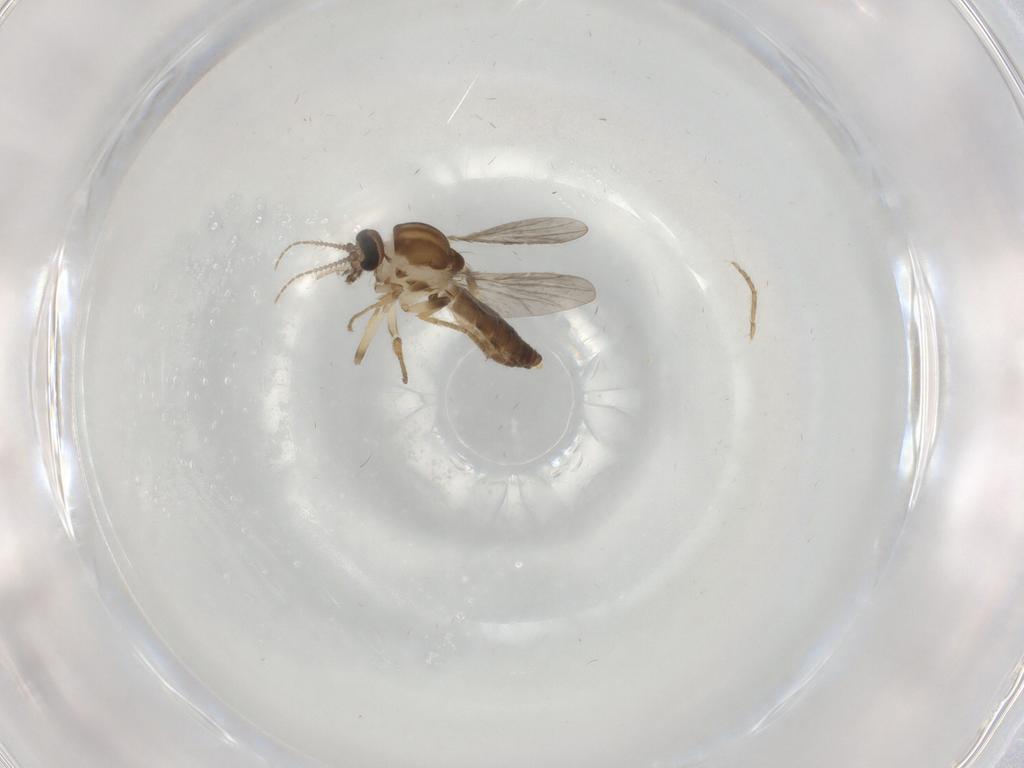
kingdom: Animalia
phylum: Arthropoda
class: Insecta
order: Diptera
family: Ceratopogonidae
